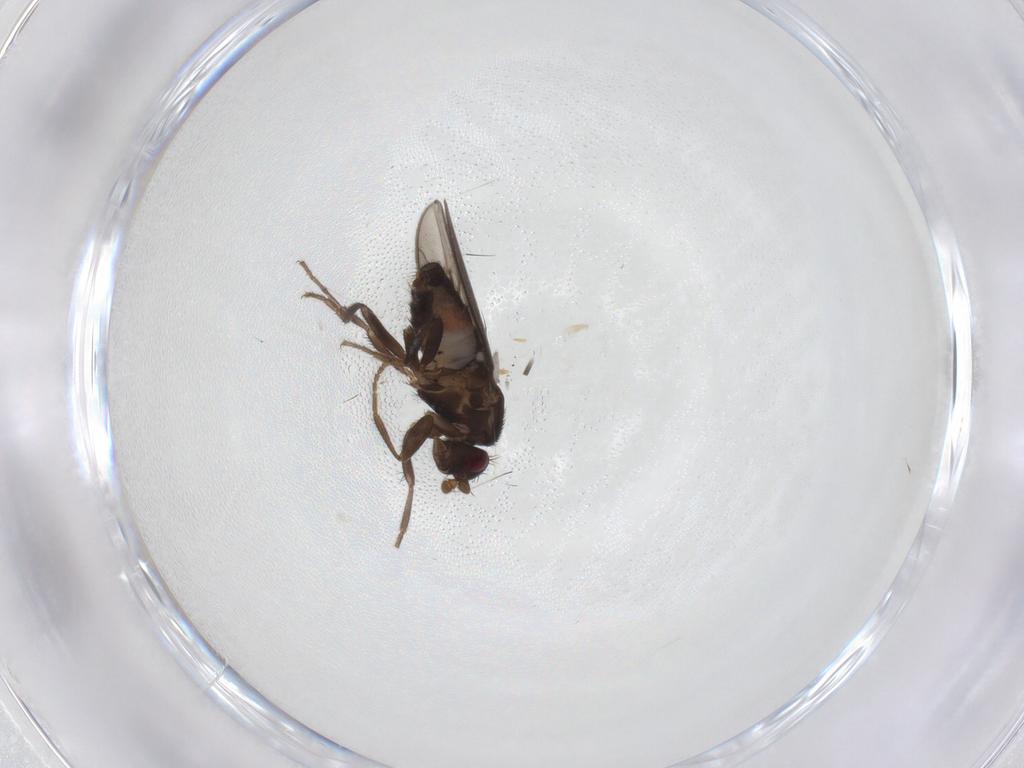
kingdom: Animalia
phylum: Arthropoda
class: Insecta
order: Diptera
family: Sphaeroceridae
